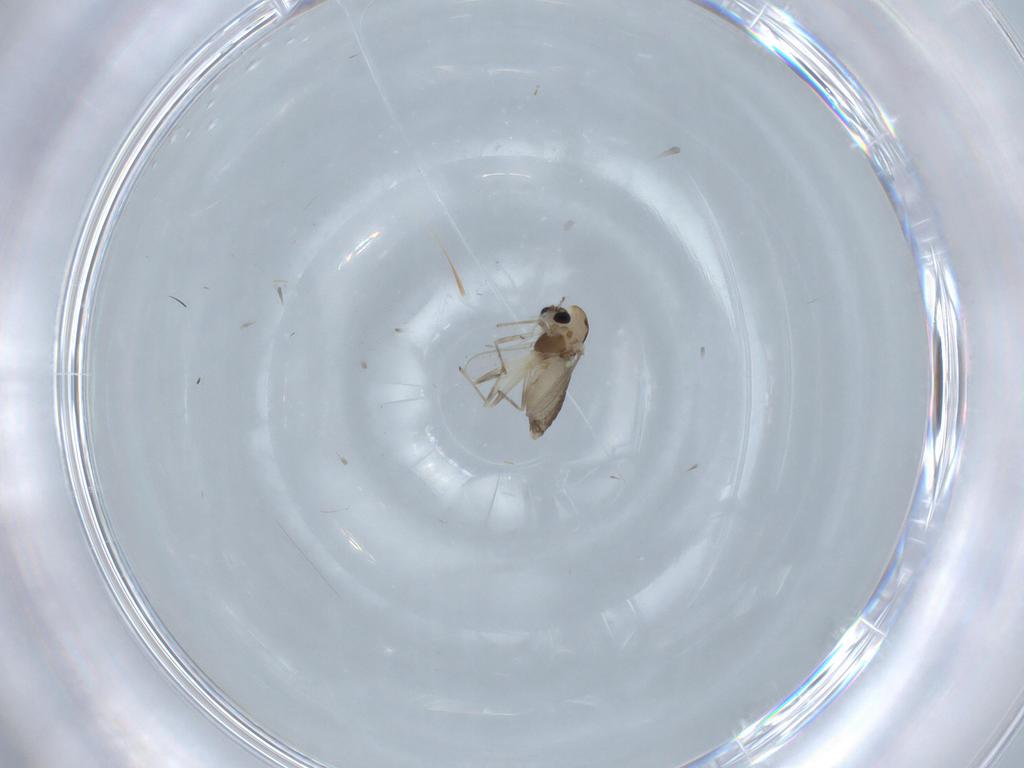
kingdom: Animalia
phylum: Arthropoda
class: Insecta
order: Diptera
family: Chironomidae
